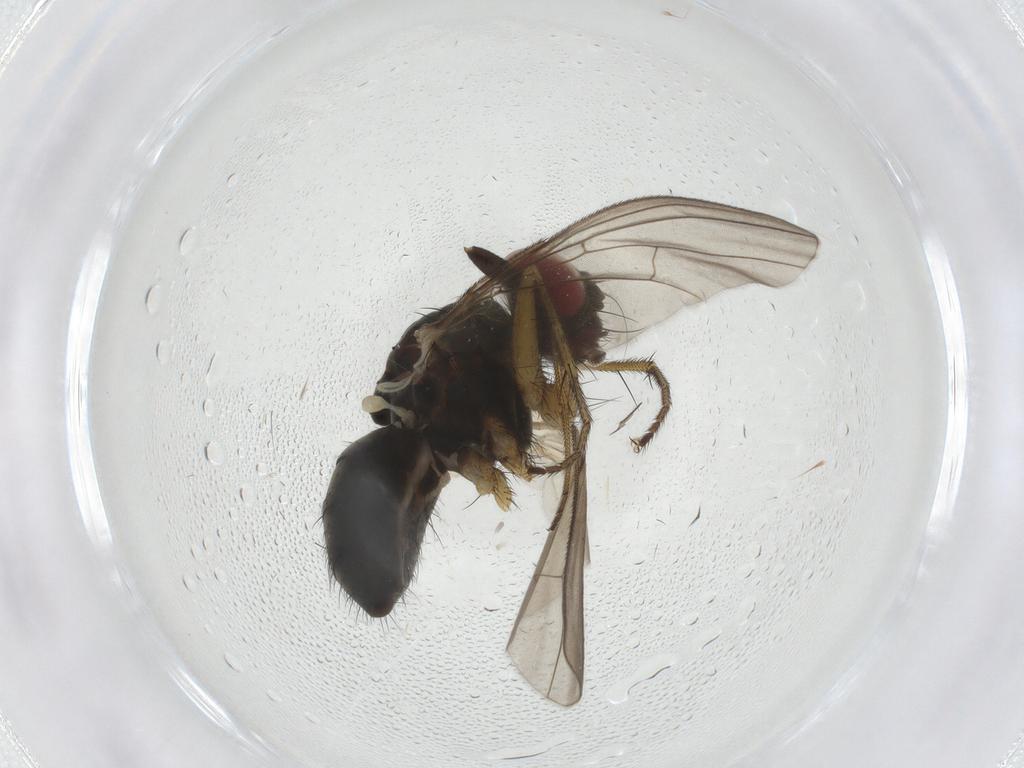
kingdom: Animalia
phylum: Arthropoda
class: Insecta
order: Diptera
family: Muscidae
